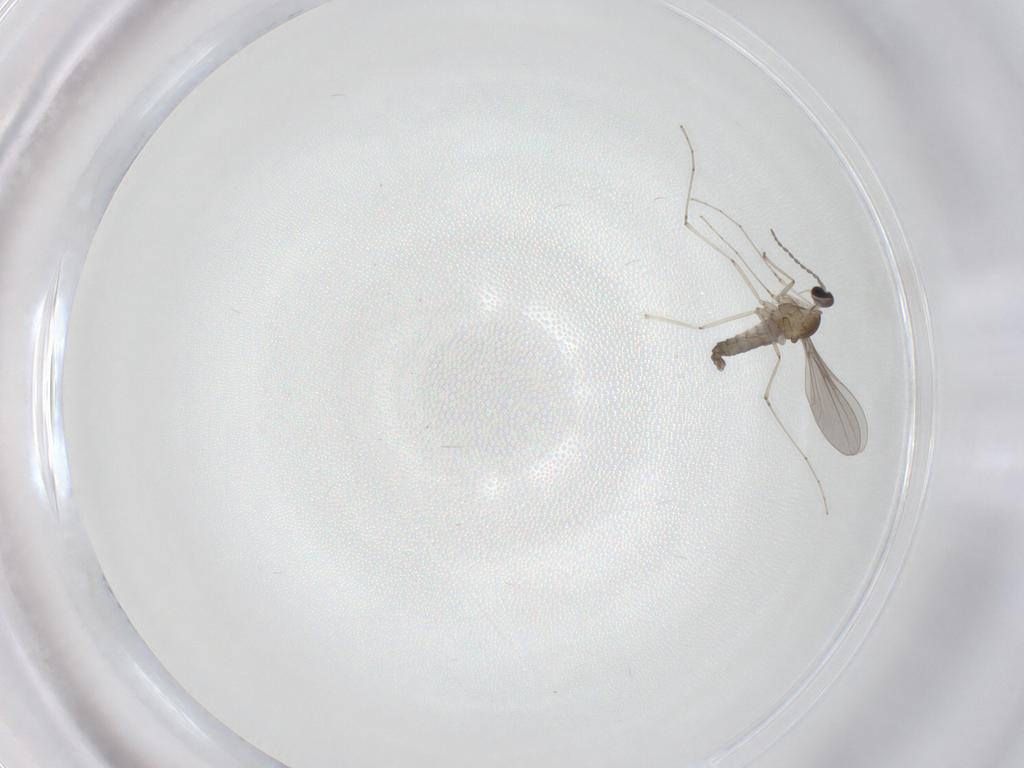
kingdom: Animalia
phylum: Arthropoda
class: Insecta
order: Diptera
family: Cecidomyiidae
